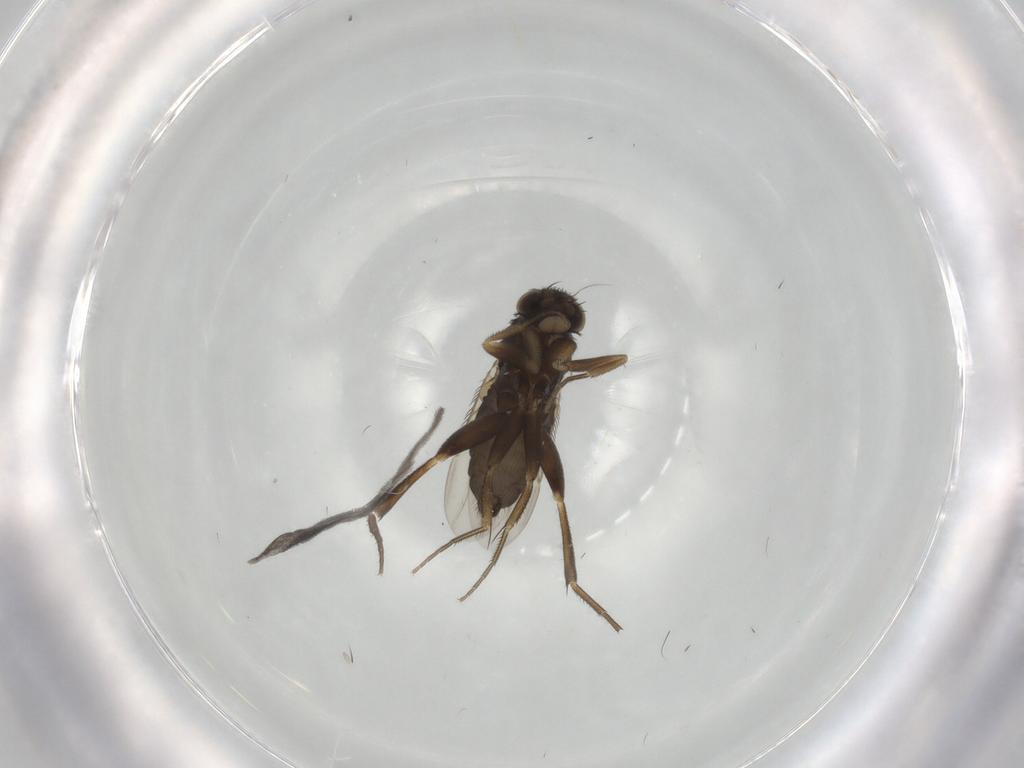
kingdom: Animalia
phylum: Arthropoda
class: Insecta
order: Diptera
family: Phoridae
